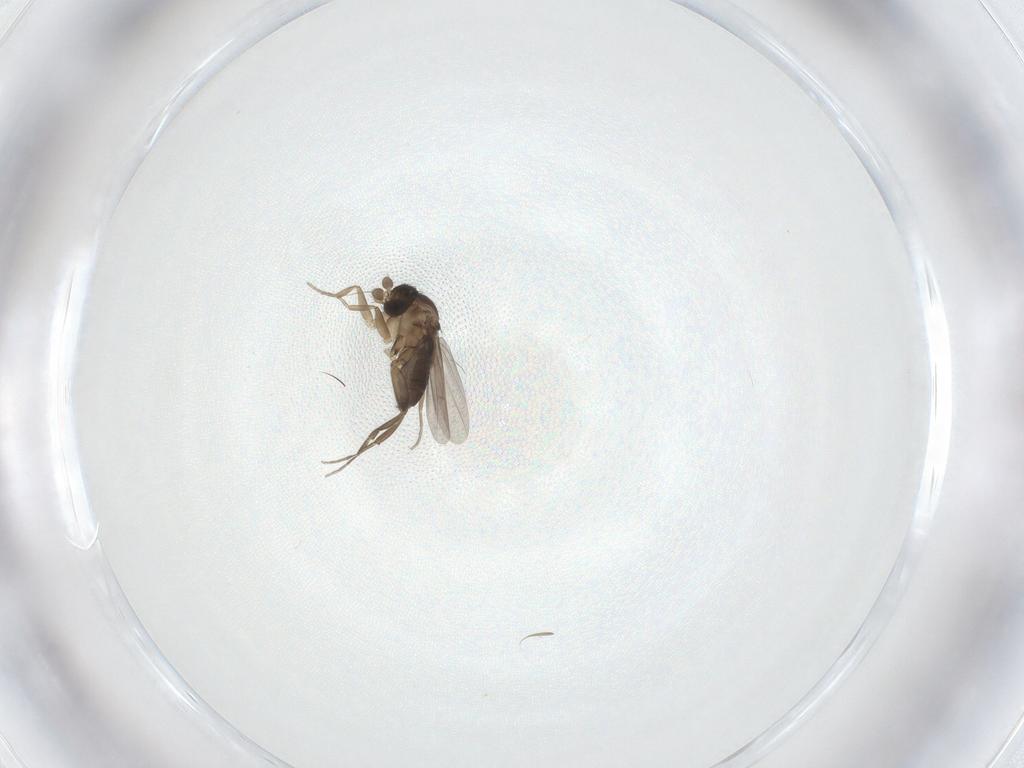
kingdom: Animalia
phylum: Arthropoda
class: Insecta
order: Diptera
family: Phoridae
